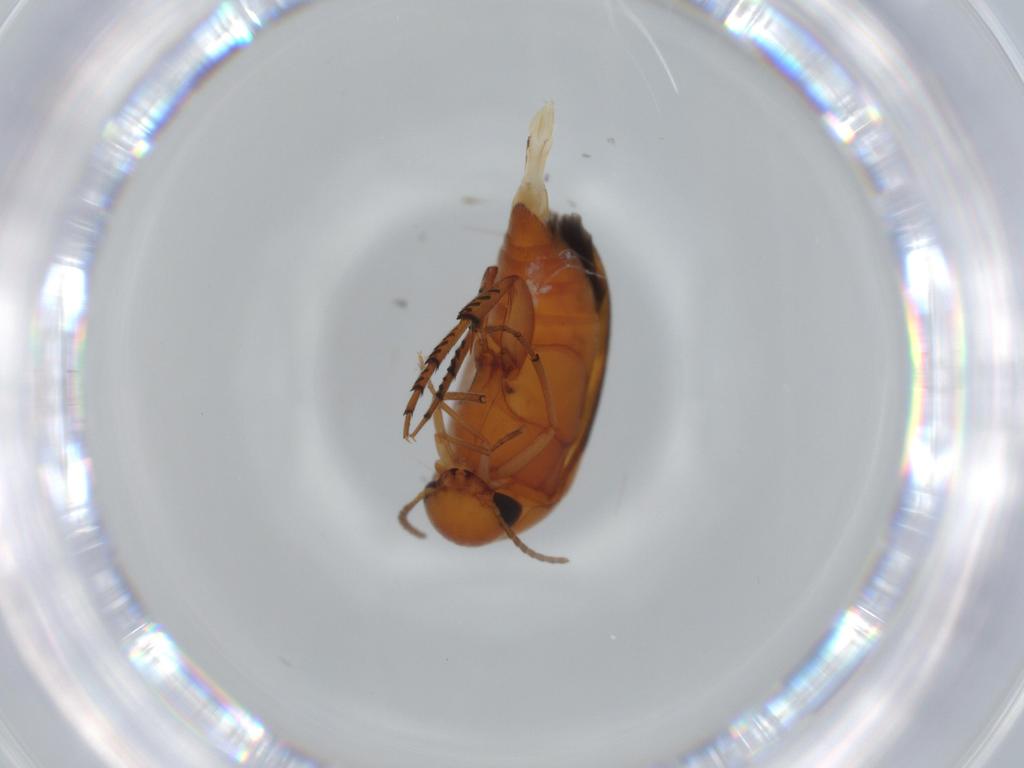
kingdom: Animalia
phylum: Arthropoda
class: Insecta
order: Coleoptera
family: Mordellidae
